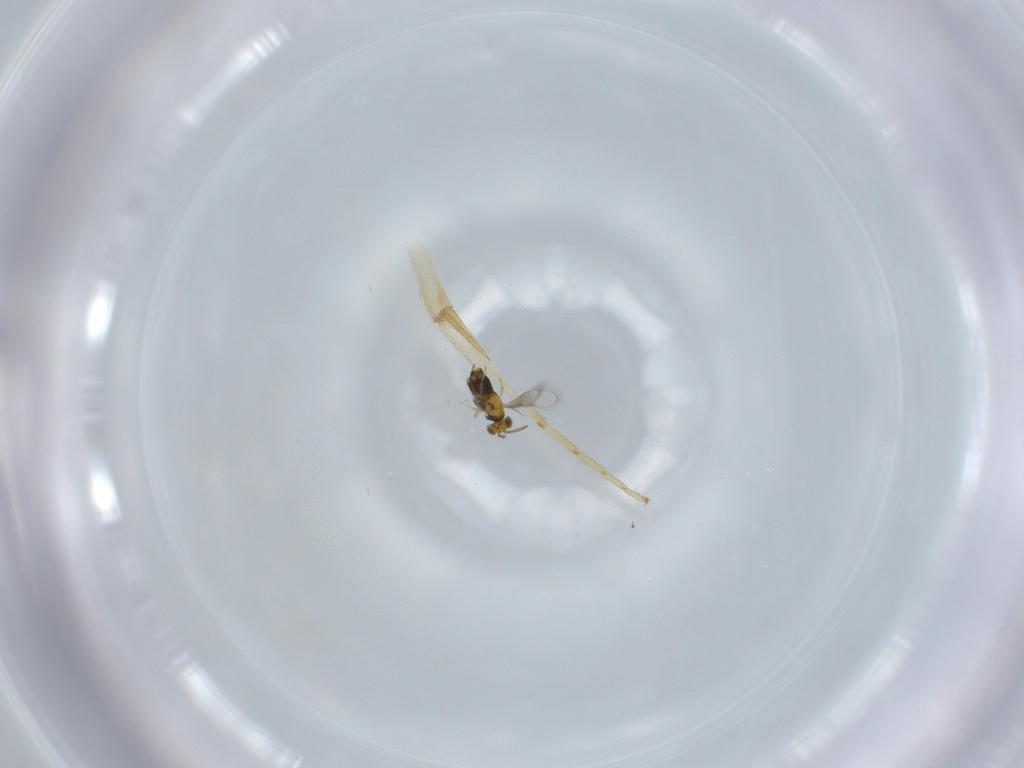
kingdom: Animalia
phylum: Arthropoda
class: Insecta
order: Hymenoptera
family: Aphelinidae
